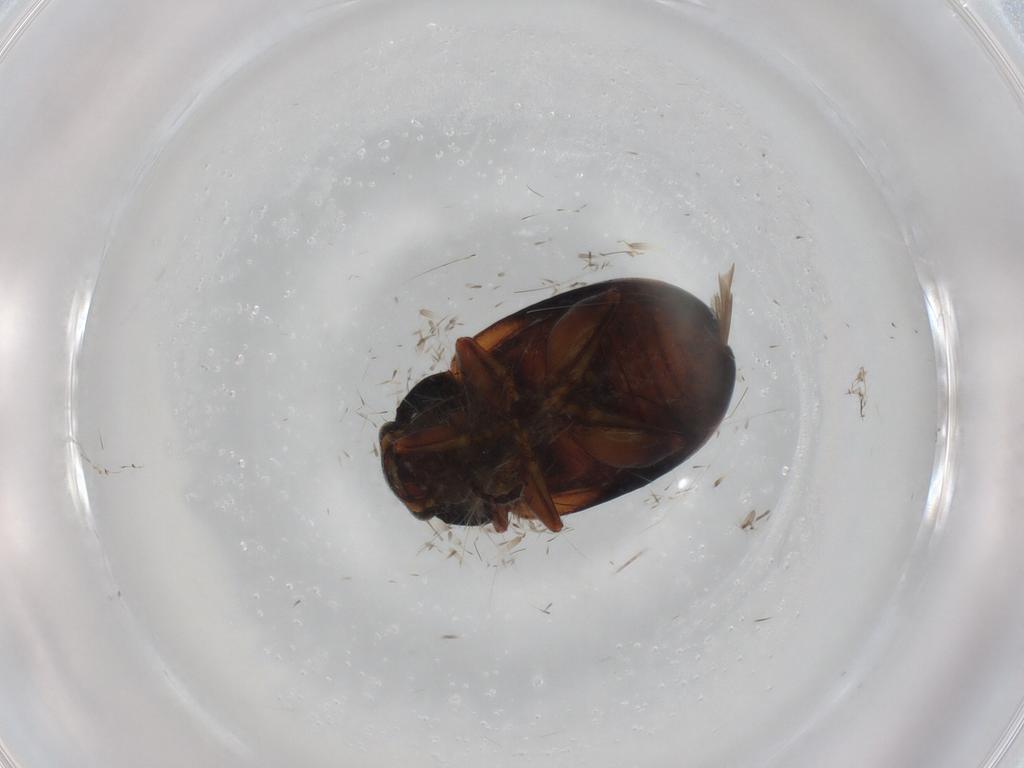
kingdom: Animalia
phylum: Arthropoda
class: Insecta
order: Coleoptera
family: Chrysomelidae
